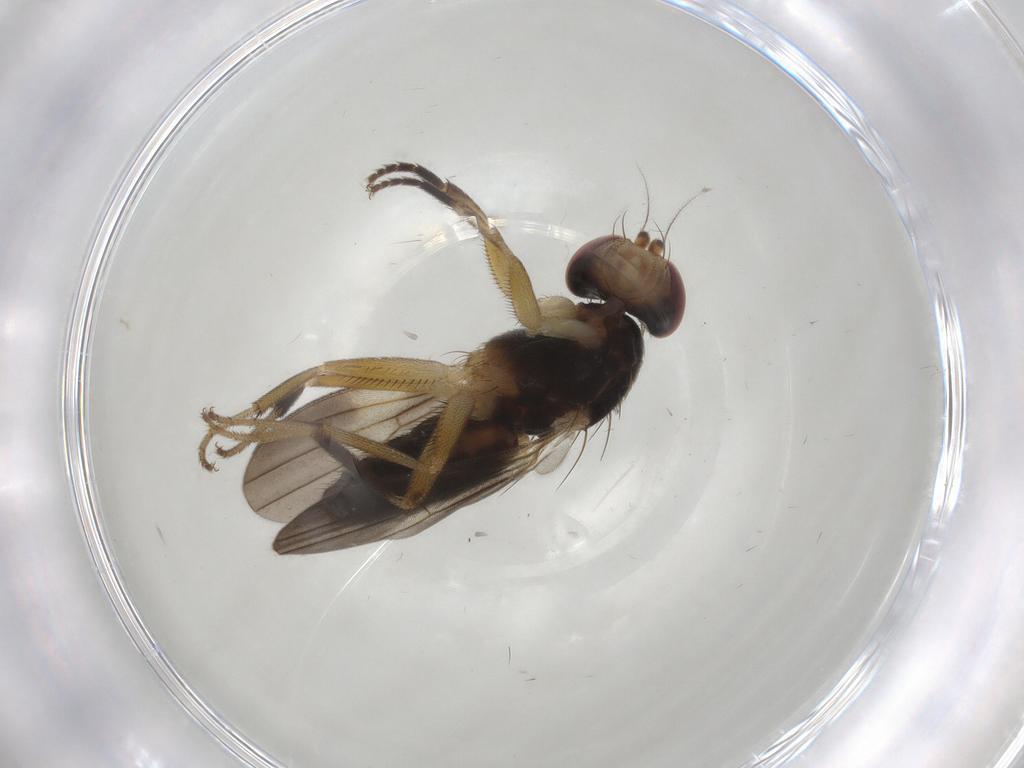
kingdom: Animalia
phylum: Arthropoda
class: Insecta
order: Diptera
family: Clusiidae
